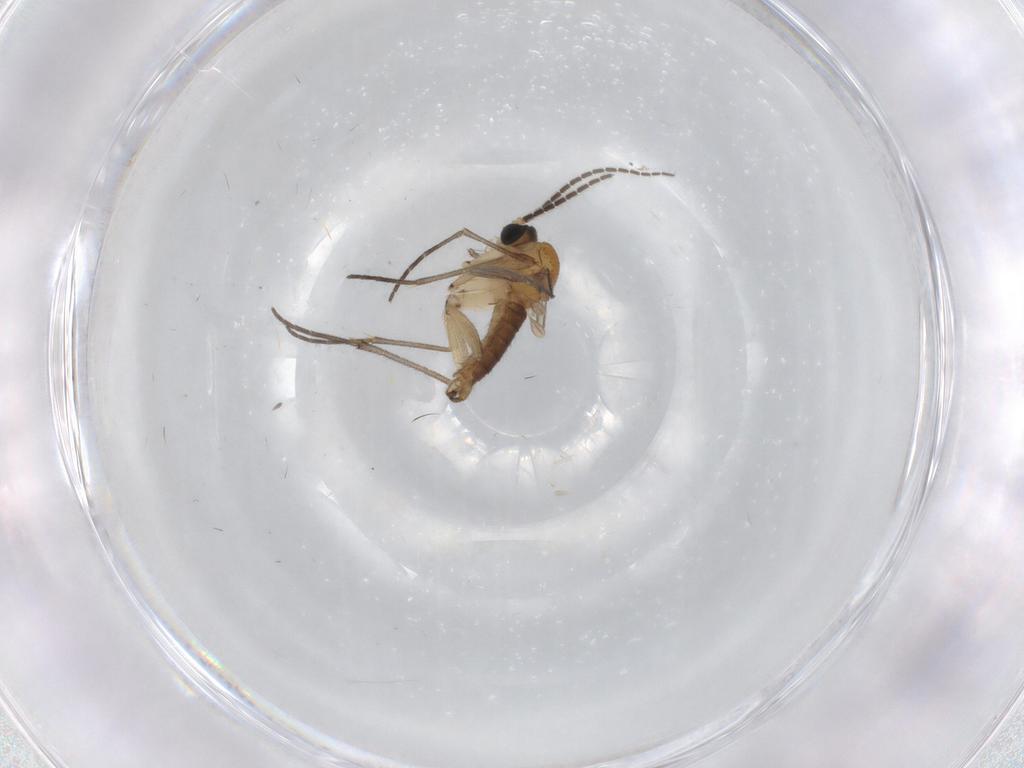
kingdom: Animalia
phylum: Arthropoda
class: Insecta
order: Diptera
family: Sciaridae
